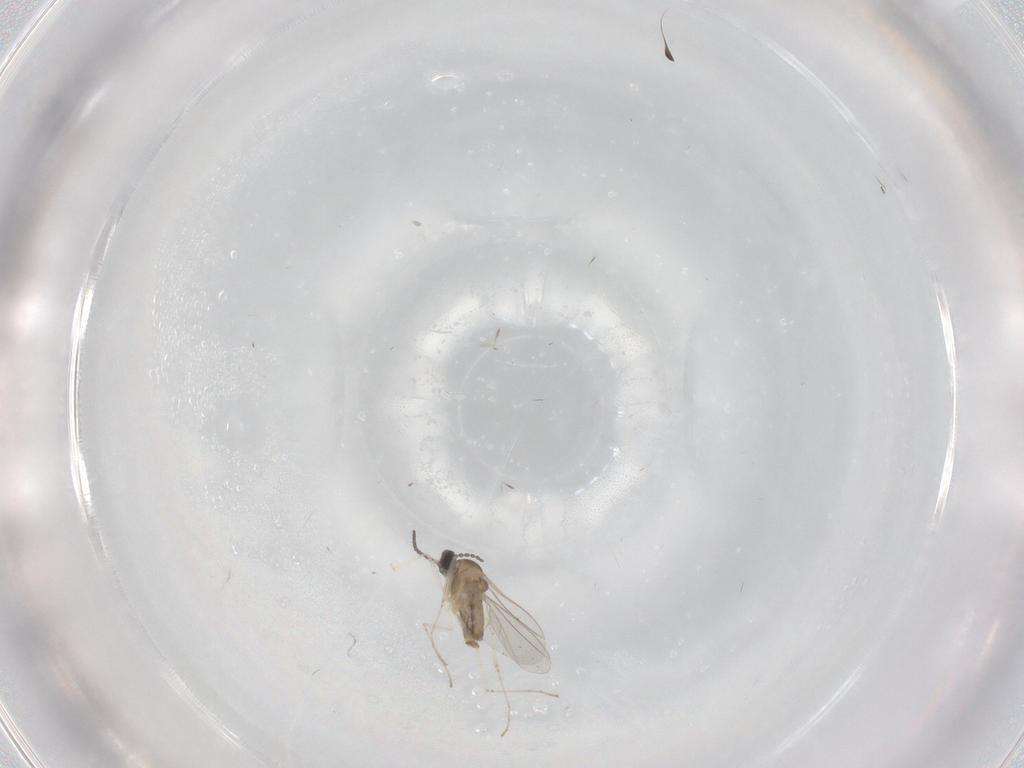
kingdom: Animalia
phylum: Arthropoda
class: Insecta
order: Diptera
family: Cecidomyiidae
